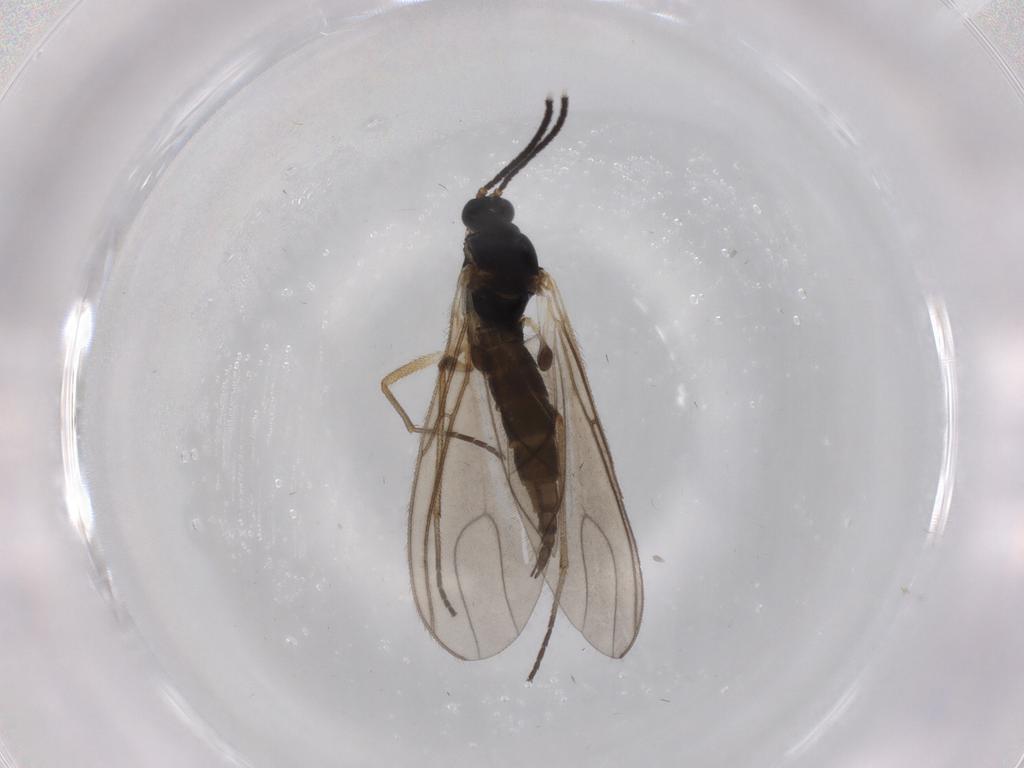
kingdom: Animalia
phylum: Arthropoda
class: Insecta
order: Diptera
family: Sciaridae
